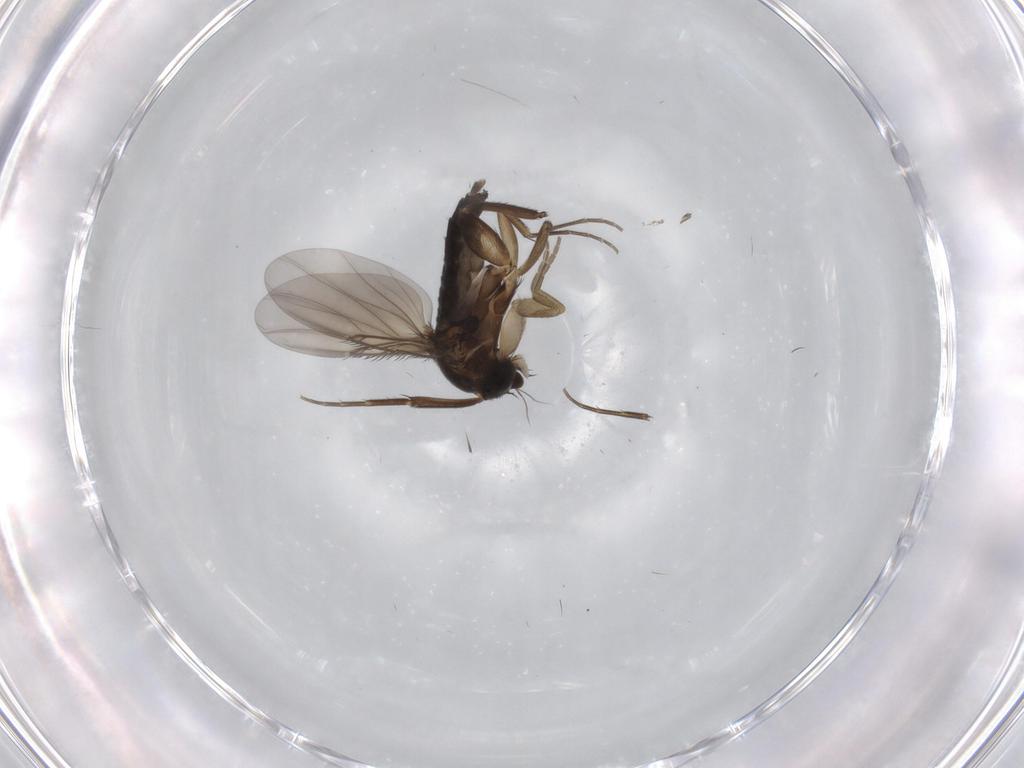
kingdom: Animalia
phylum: Arthropoda
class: Insecta
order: Diptera
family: Phoridae
